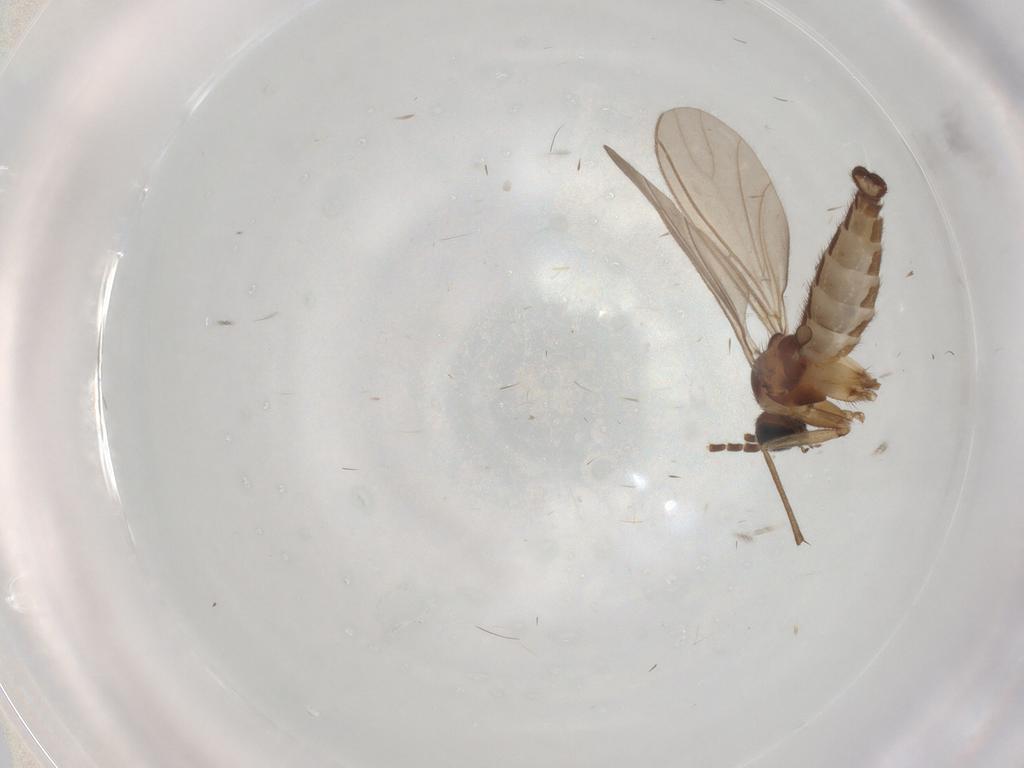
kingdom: Animalia
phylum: Arthropoda
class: Insecta
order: Diptera
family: Sciaridae
